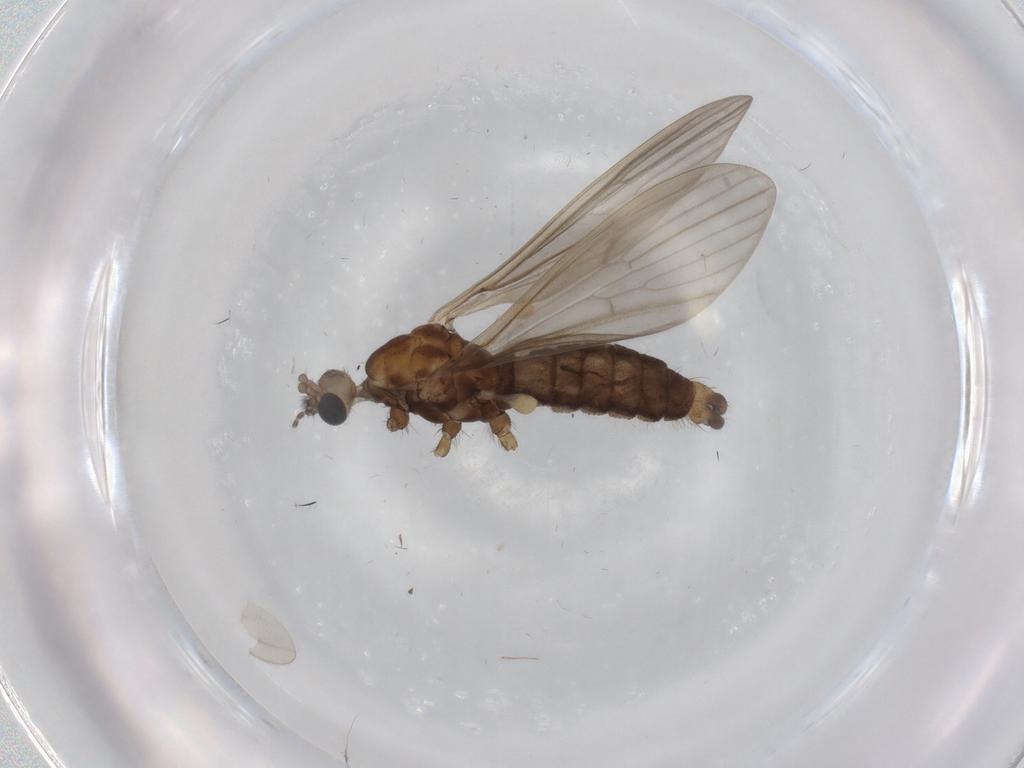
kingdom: Animalia
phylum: Arthropoda
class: Insecta
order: Diptera
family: Cecidomyiidae
